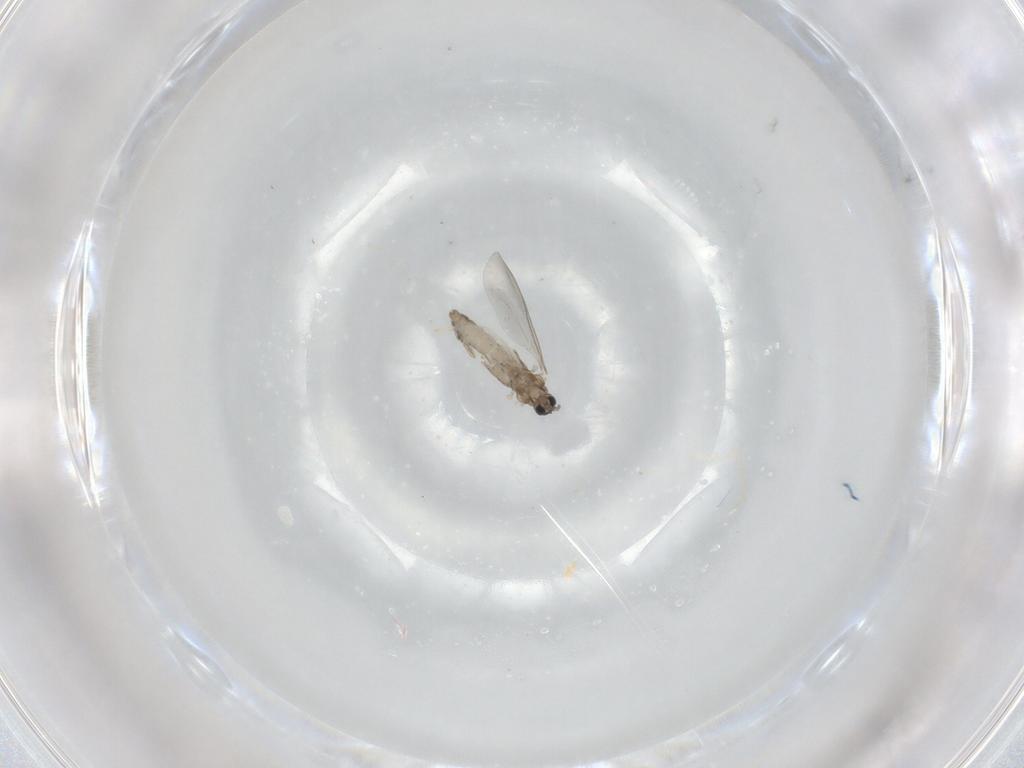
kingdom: Animalia
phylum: Arthropoda
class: Insecta
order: Diptera
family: Cecidomyiidae
